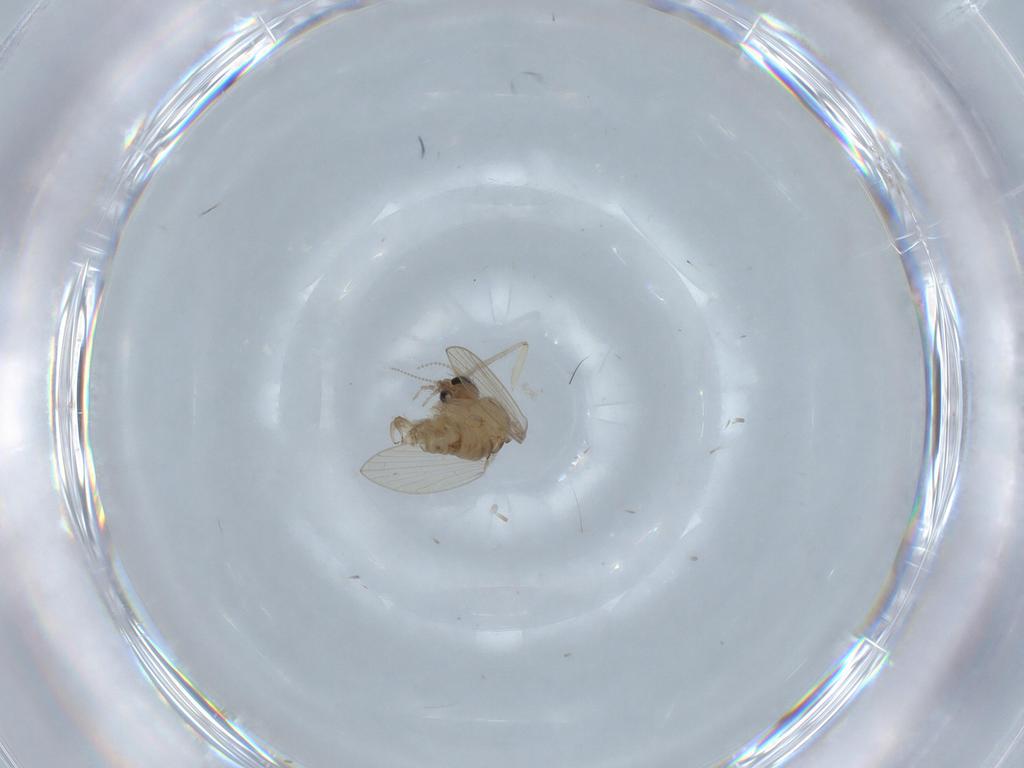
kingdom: Animalia
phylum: Arthropoda
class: Insecta
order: Diptera
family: Psychodidae
